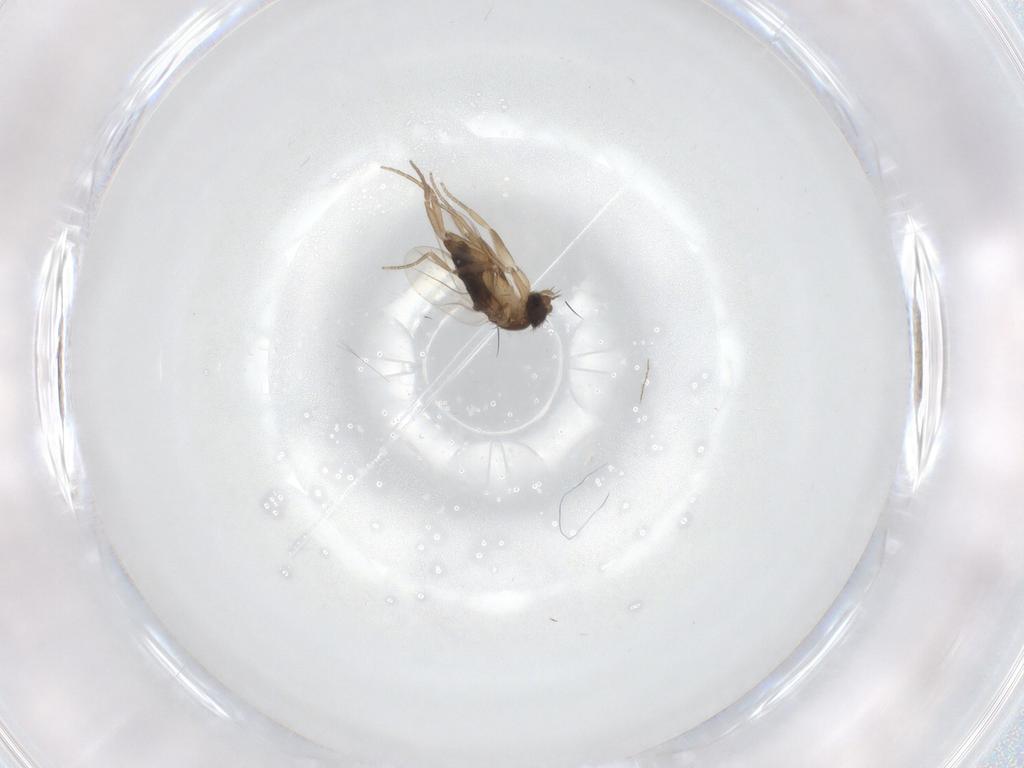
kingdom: Animalia
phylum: Arthropoda
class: Insecta
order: Diptera
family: Phoridae
